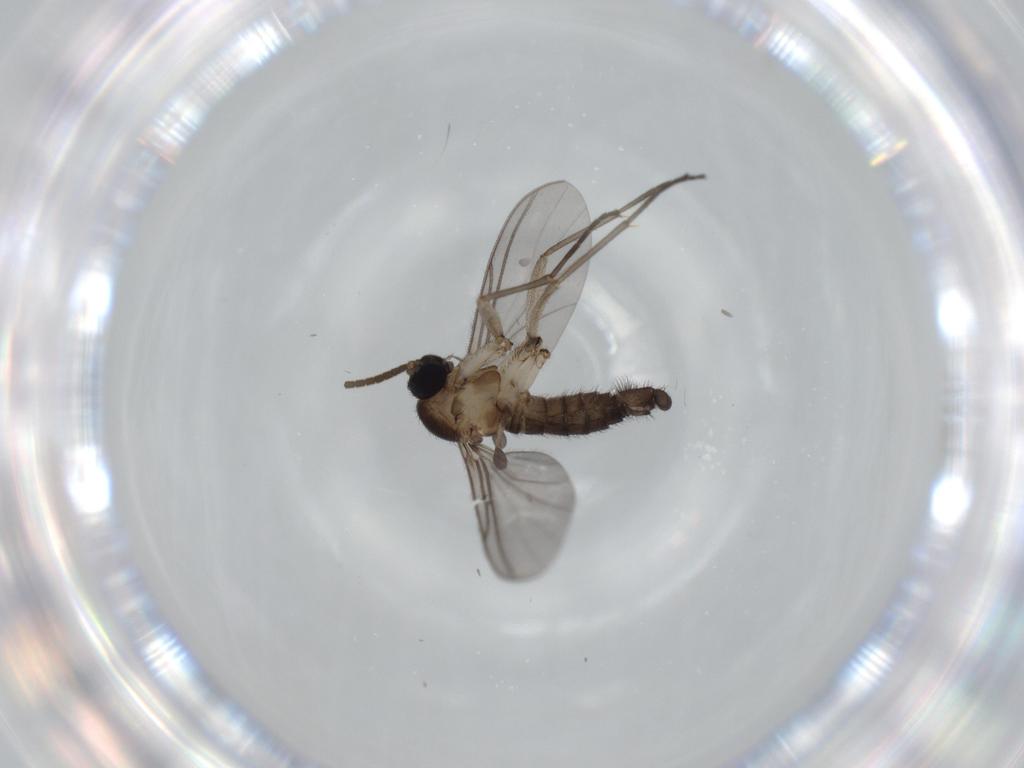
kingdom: Animalia
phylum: Arthropoda
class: Insecta
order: Diptera
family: Sciaridae
